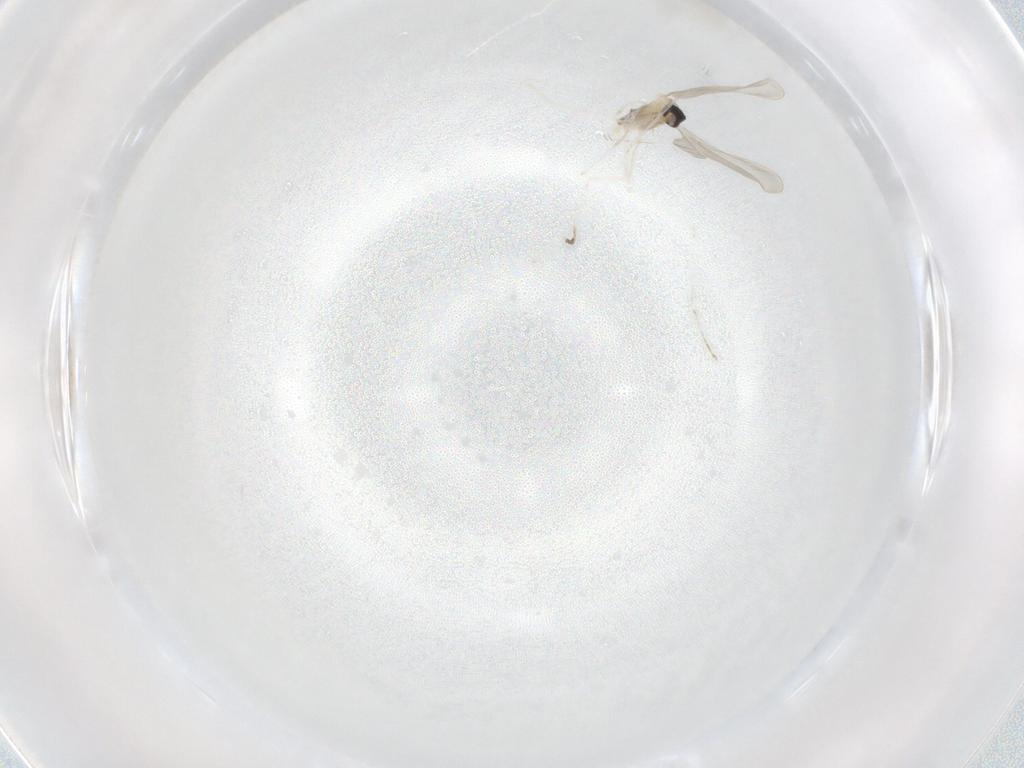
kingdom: Animalia
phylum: Arthropoda
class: Insecta
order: Diptera
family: Cecidomyiidae
